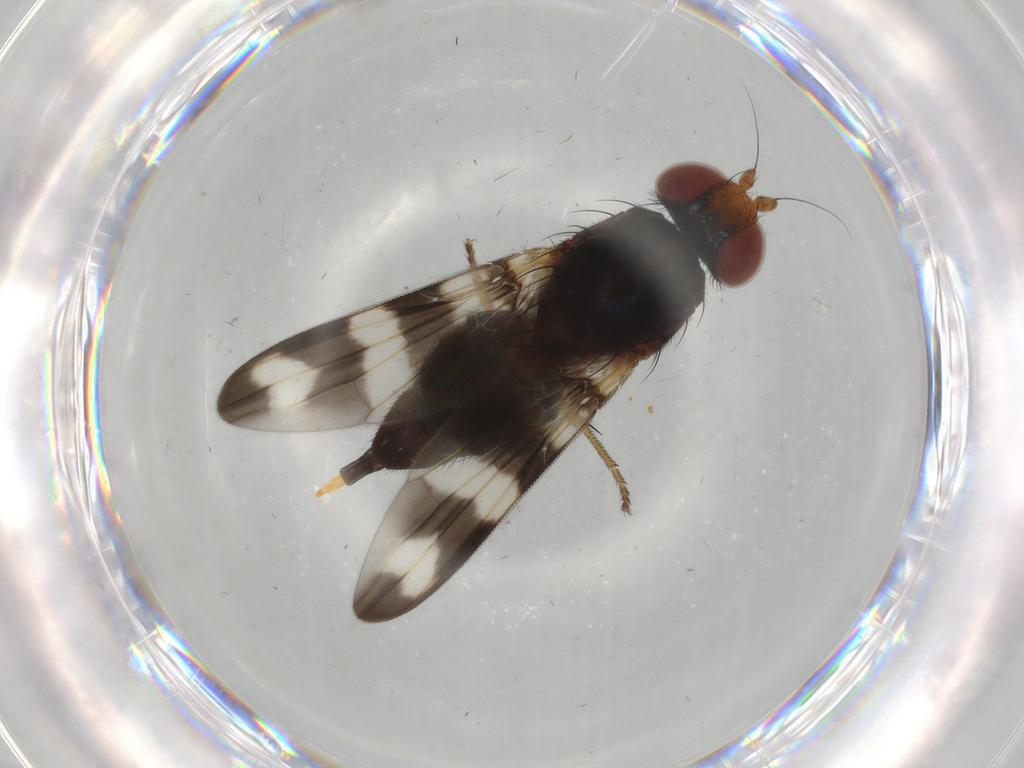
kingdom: Animalia
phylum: Arthropoda
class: Insecta
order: Diptera
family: Ulidiidae
